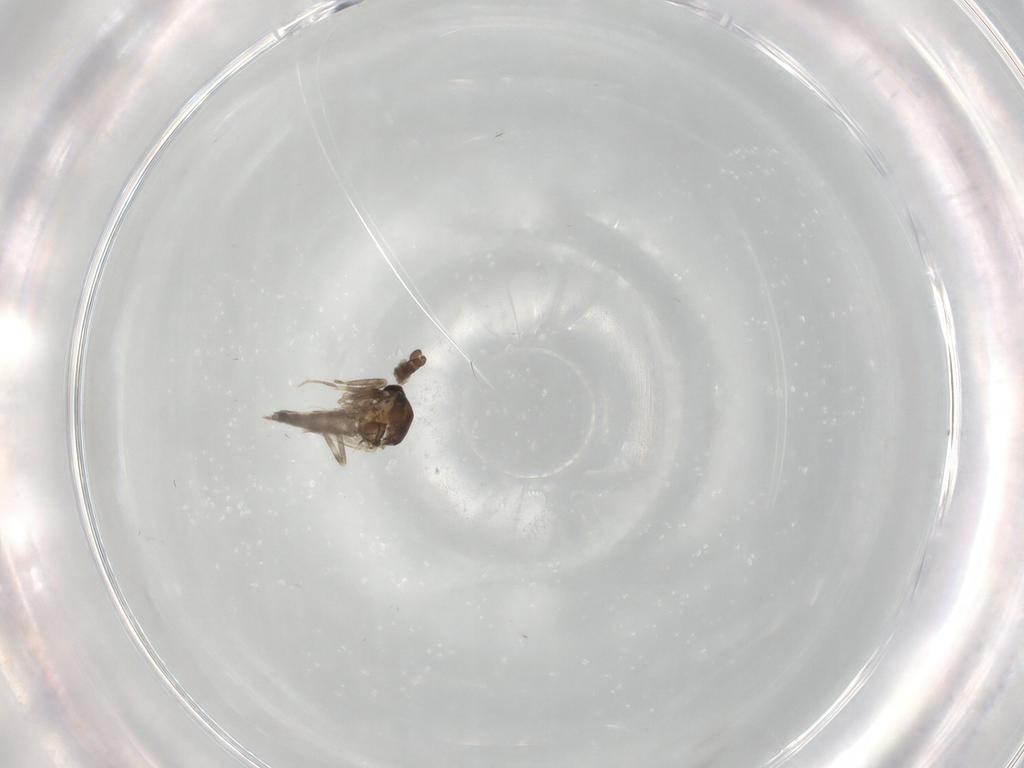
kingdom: Animalia
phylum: Arthropoda
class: Insecta
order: Diptera
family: Ceratopogonidae
